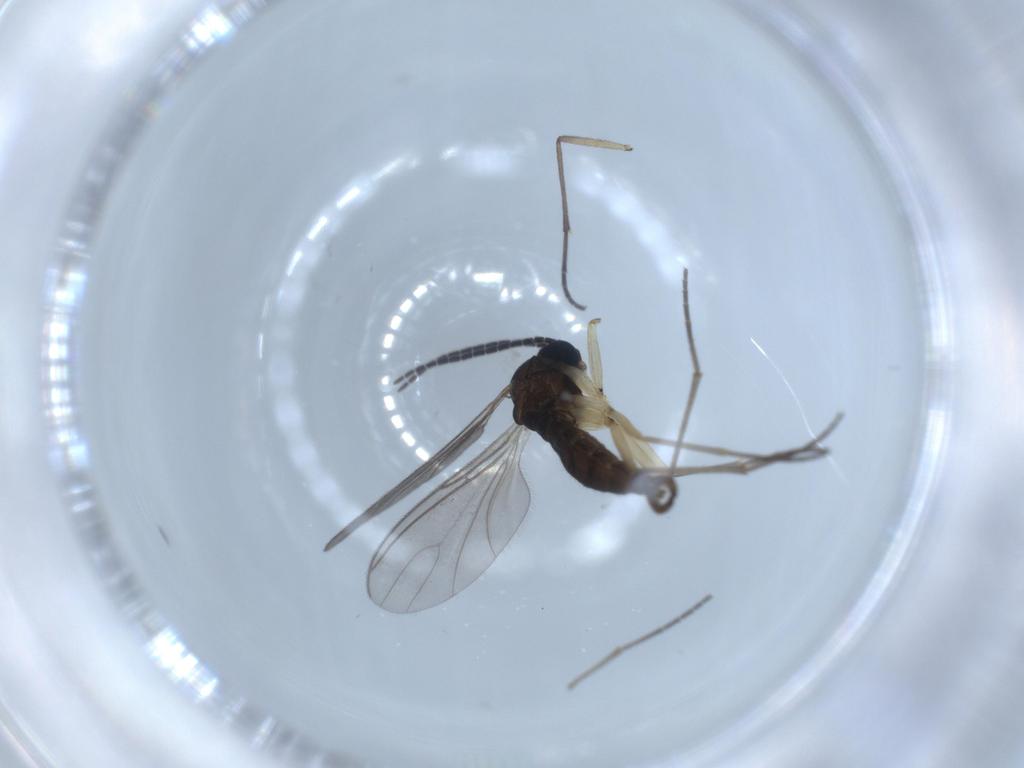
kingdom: Animalia
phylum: Arthropoda
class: Insecta
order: Diptera
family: Sciaridae
